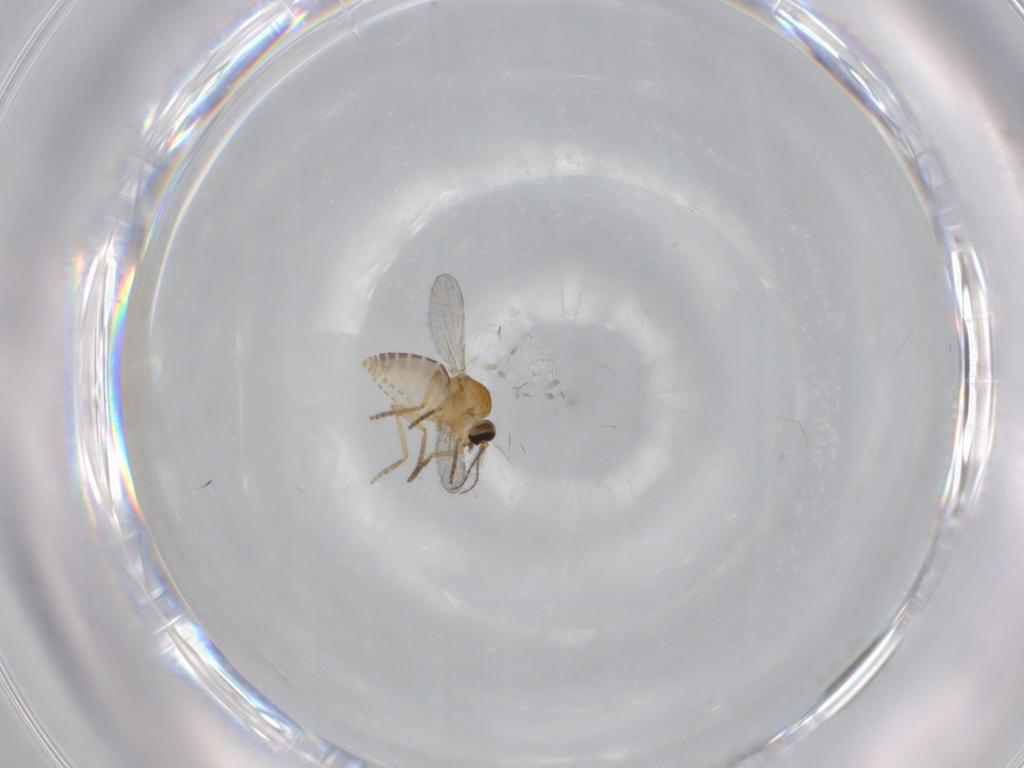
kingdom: Animalia
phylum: Arthropoda
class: Insecta
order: Diptera
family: Ceratopogonidae
